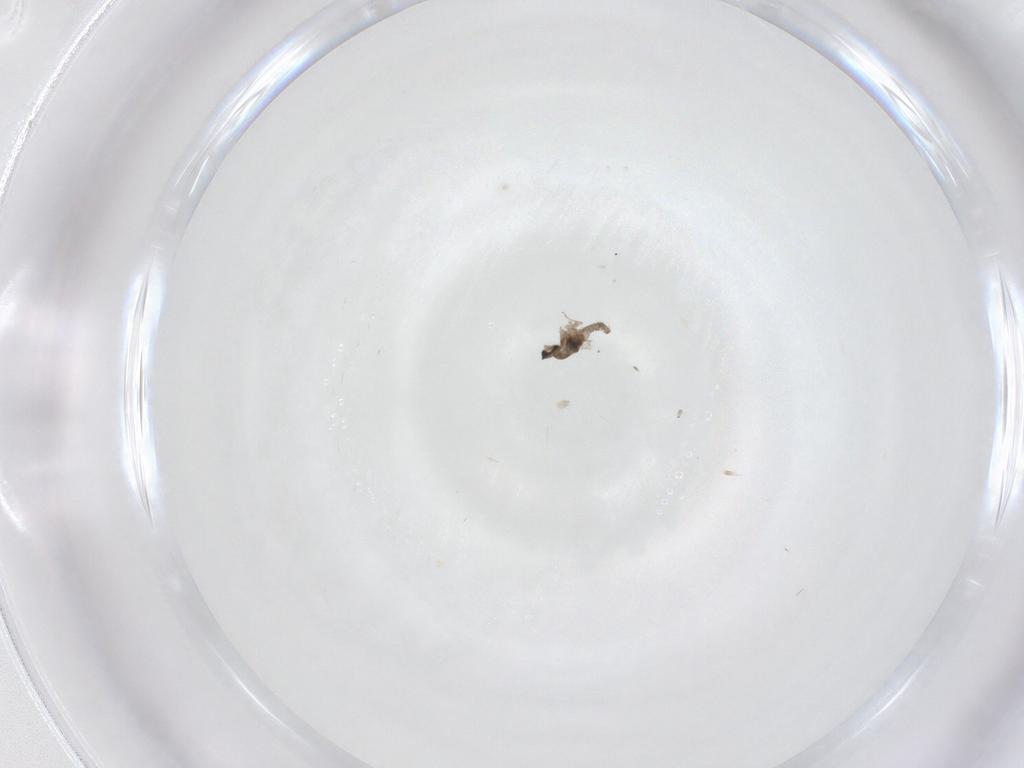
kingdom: Animalia
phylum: Arthropoda
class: Insecta
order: Diptera
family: Cecidomyiidae
